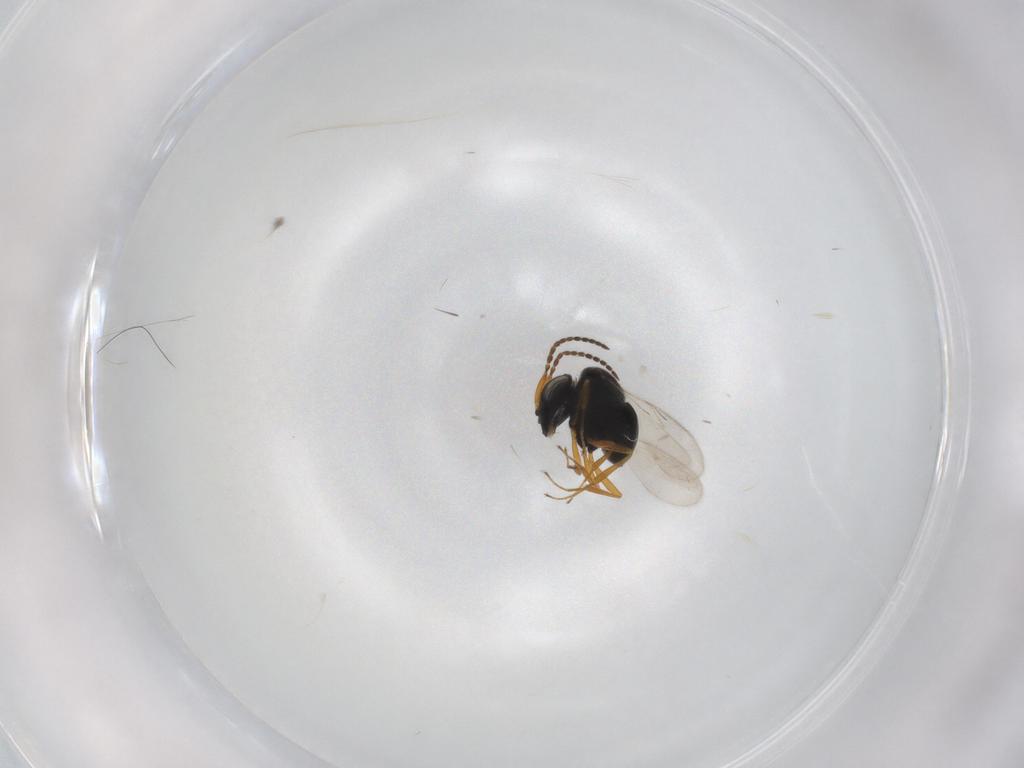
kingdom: Animalia
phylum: Arthropoda
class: Insecta
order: Hymenoptera
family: Scelionidae
